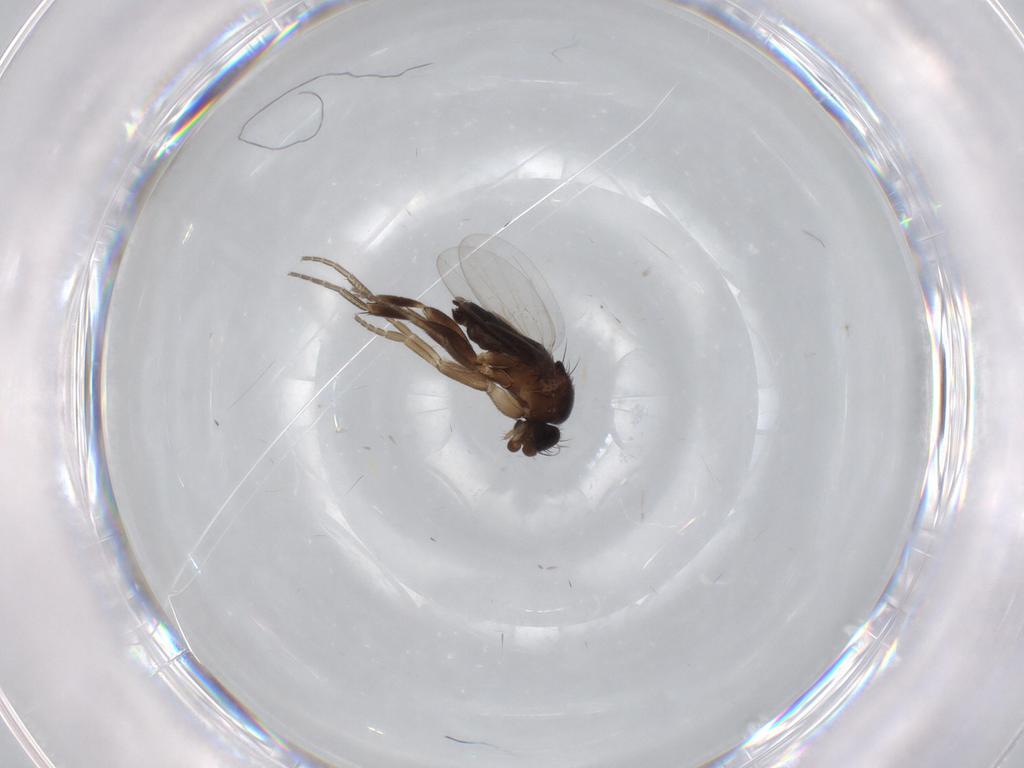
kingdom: Animalia
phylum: Arthropoda
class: Insecta
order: Diptera
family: Phoridae
